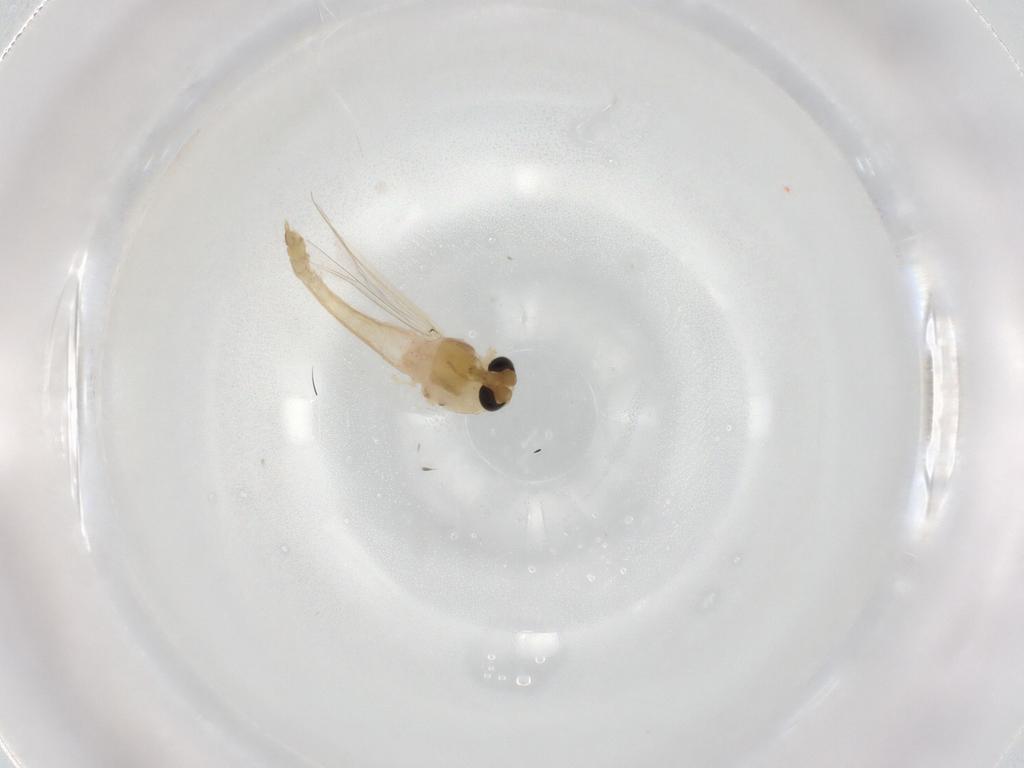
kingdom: Animalia
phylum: Arthropoda
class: Insecta
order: Diptera
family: Chironomidae
